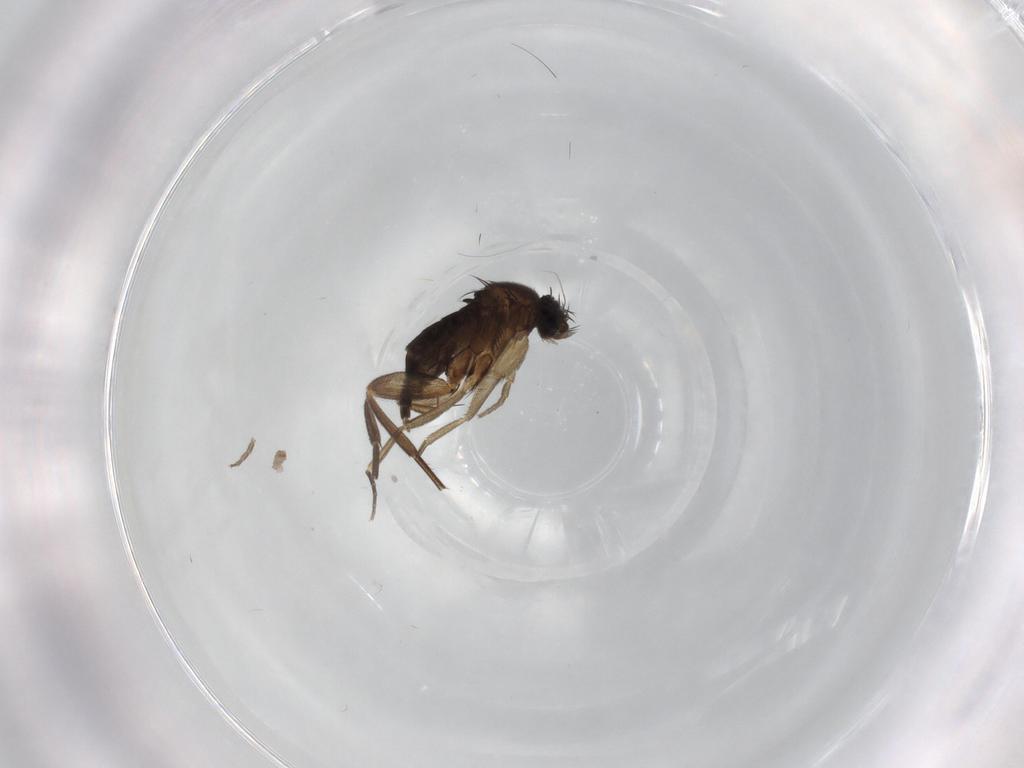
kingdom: Animalia
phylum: Arthropoda
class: Insecta
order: Diptera
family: Phoridae
